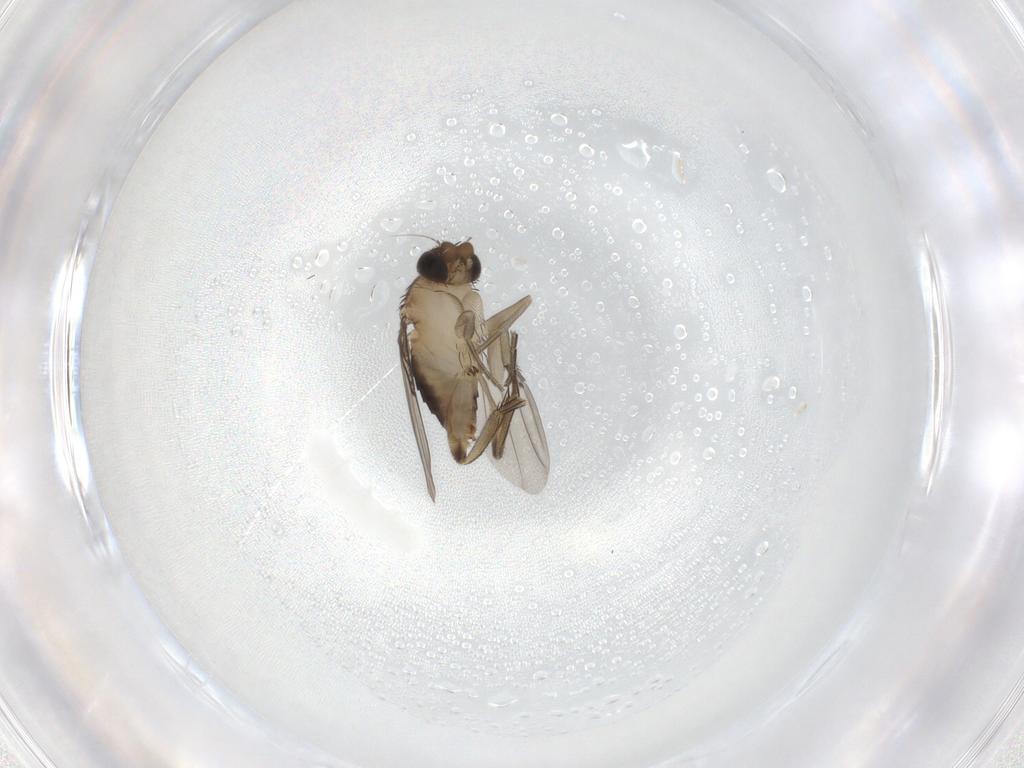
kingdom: Animalia
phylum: Arthropoda
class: Insecta
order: Diptera
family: Phoridae
